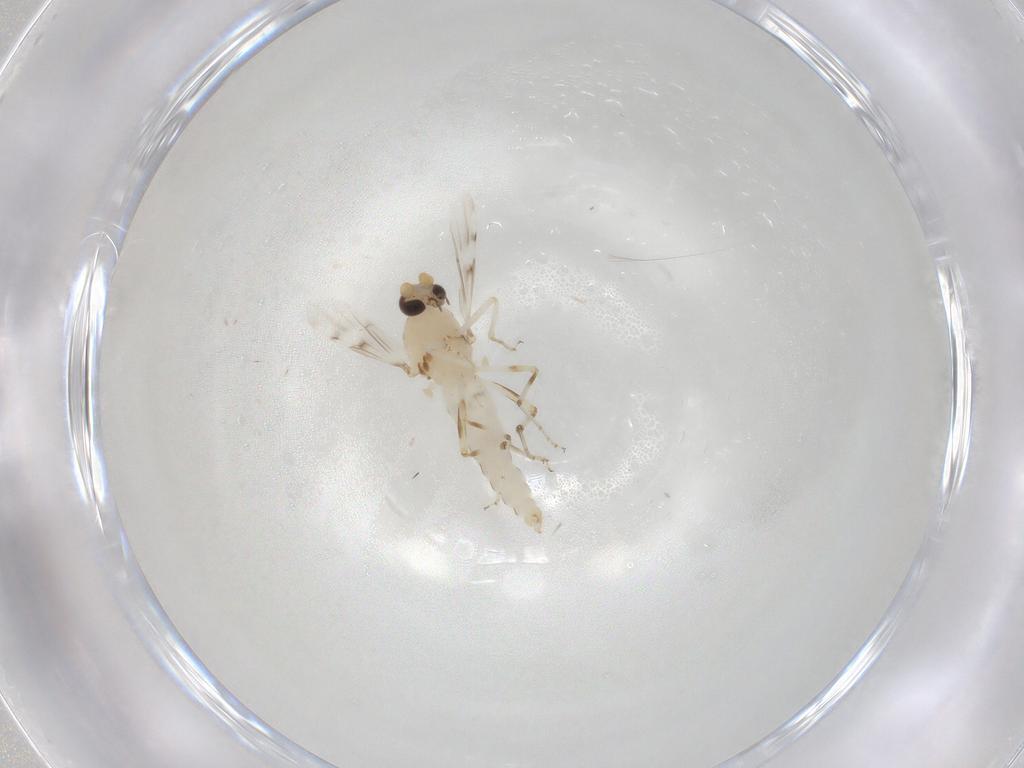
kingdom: Animalia
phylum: Arthropoda
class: Insecta
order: Diptera
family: Ceratopogonidae
